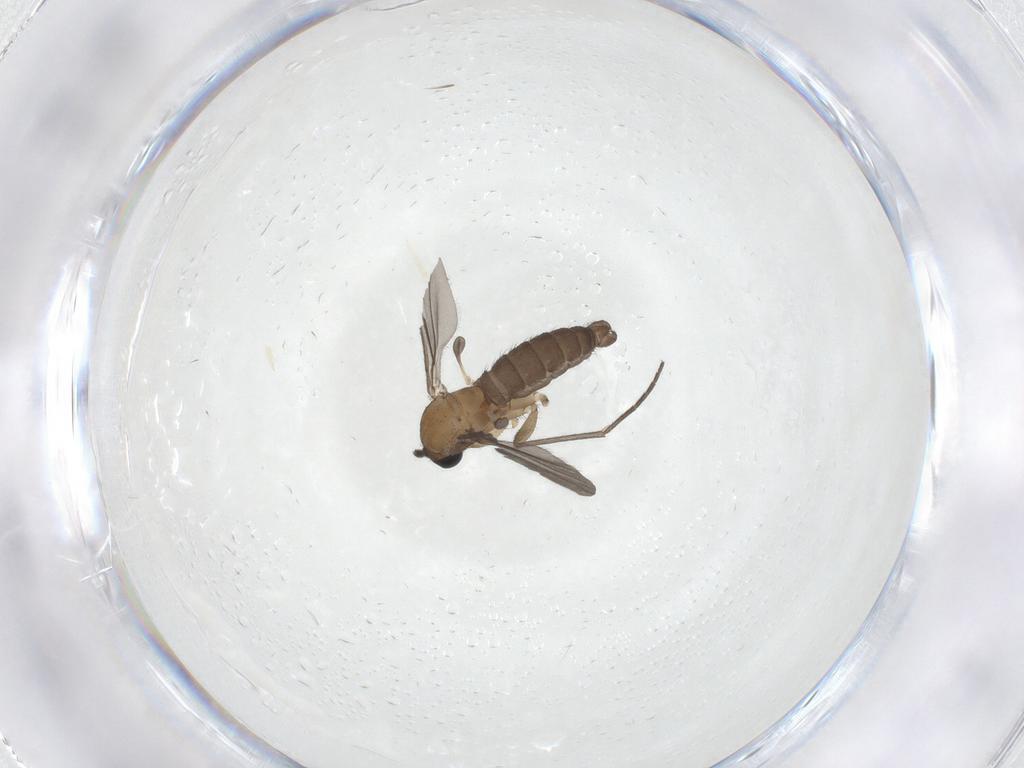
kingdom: Animalia
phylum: Arthropoda
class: Insecta
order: Diptera
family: Sciaridae
